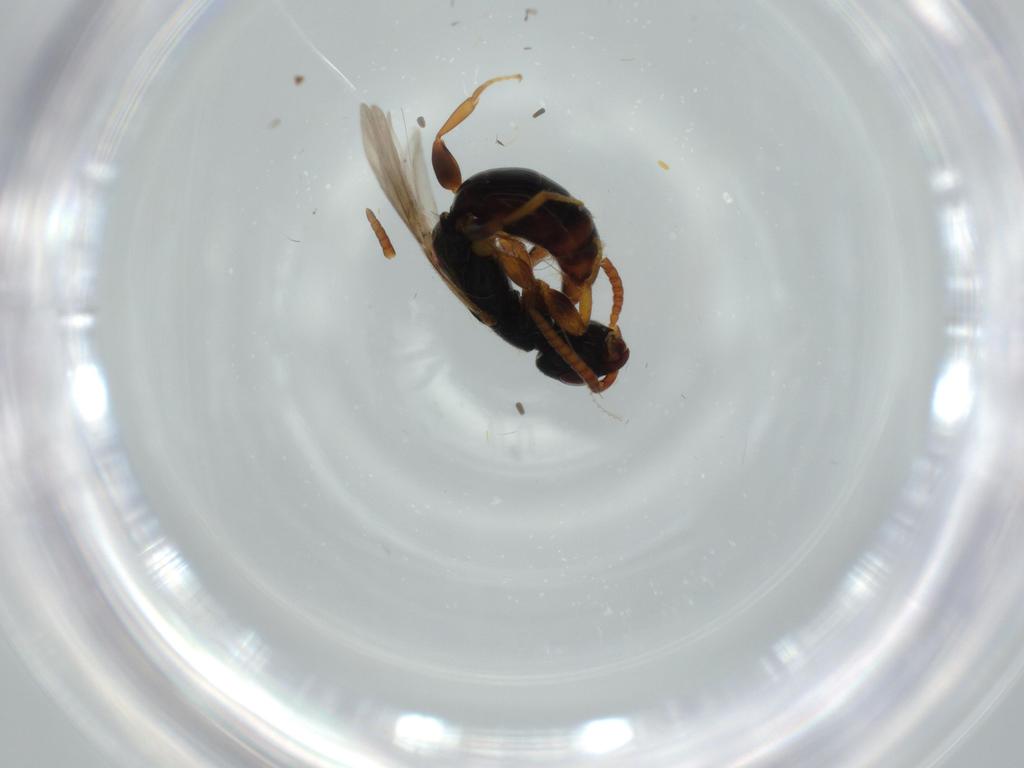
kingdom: Animalia
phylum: Arthropoda
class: Insecta
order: Hymenoptera
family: Bethylidae
